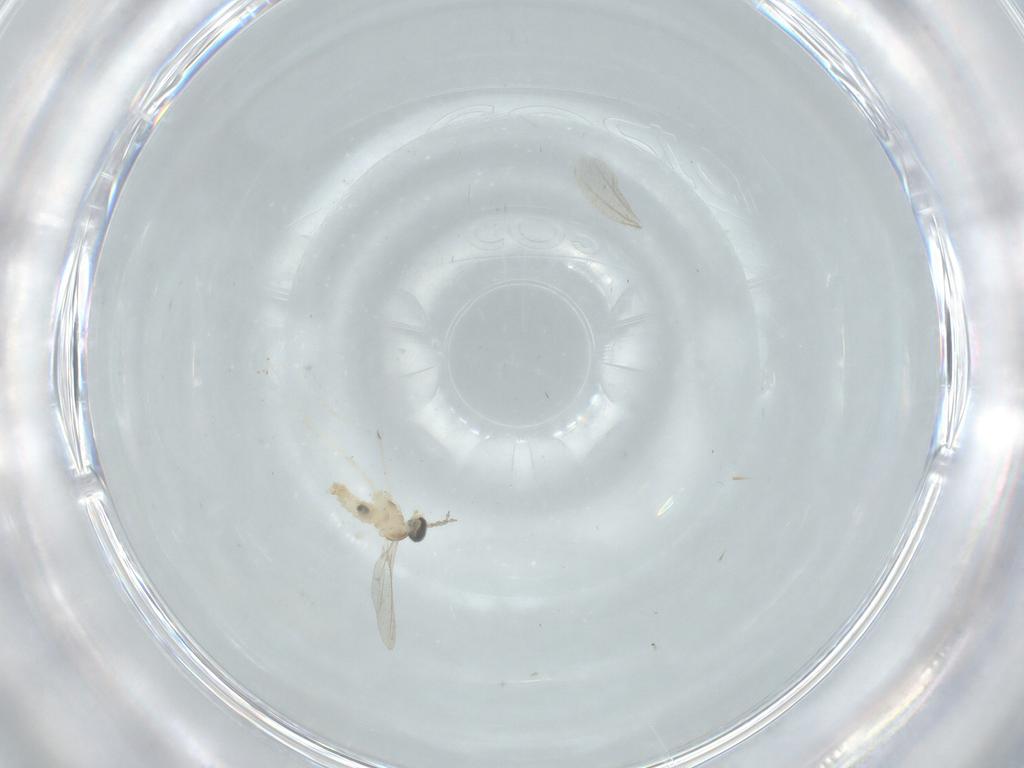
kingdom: Animalia
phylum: Arthropoda
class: Insecta
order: Diptera
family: Sciaridae
